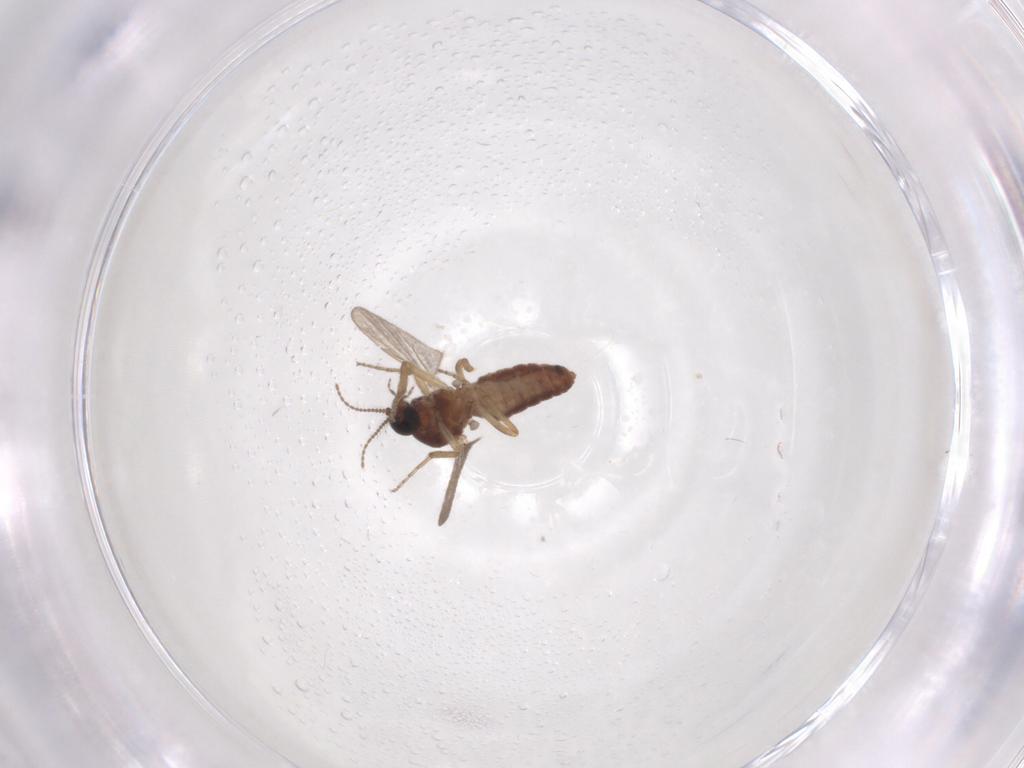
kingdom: Animalia
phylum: Arthropoda
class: Insecta
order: Diptera
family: Ceratopogonidae
